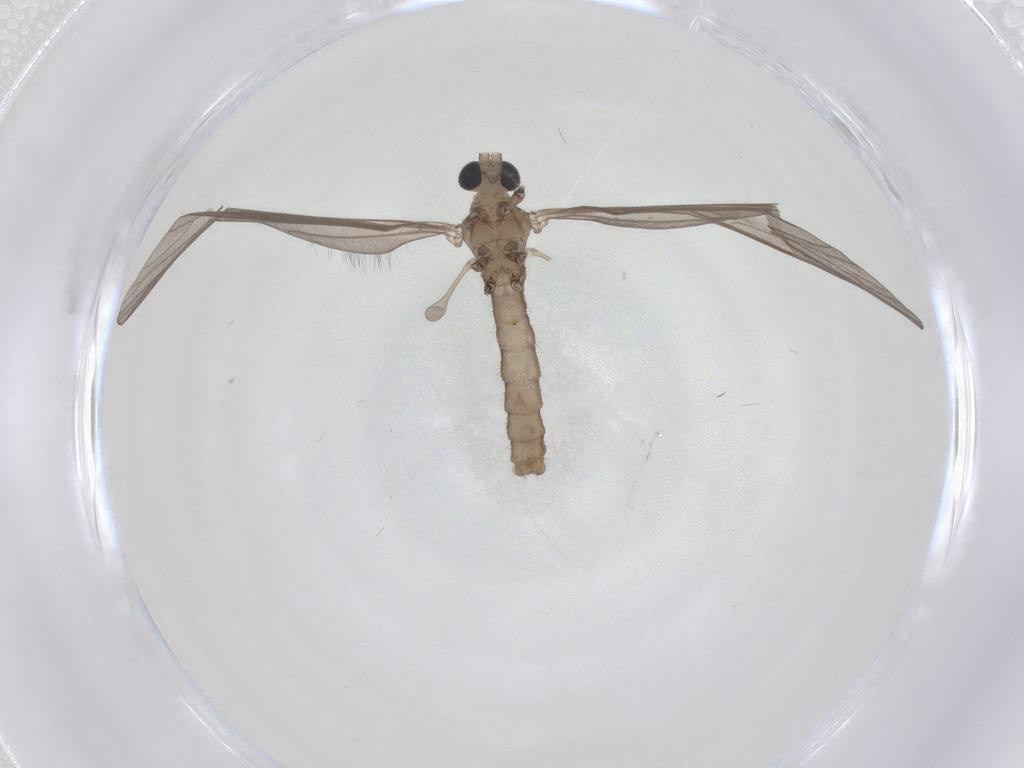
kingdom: Animalia
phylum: Arthropoda
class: Insecta
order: Diptera
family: Limoniidae
